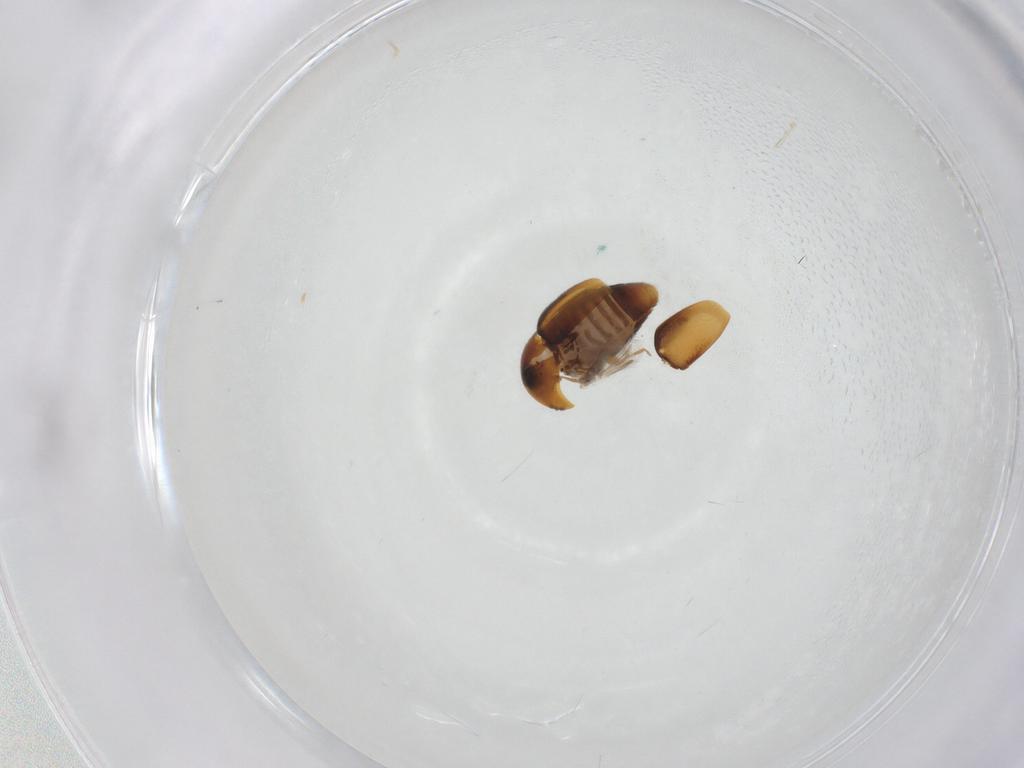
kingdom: Animalia
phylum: Arthropoda
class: Insecta
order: Coleoptera
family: Corylophidae
